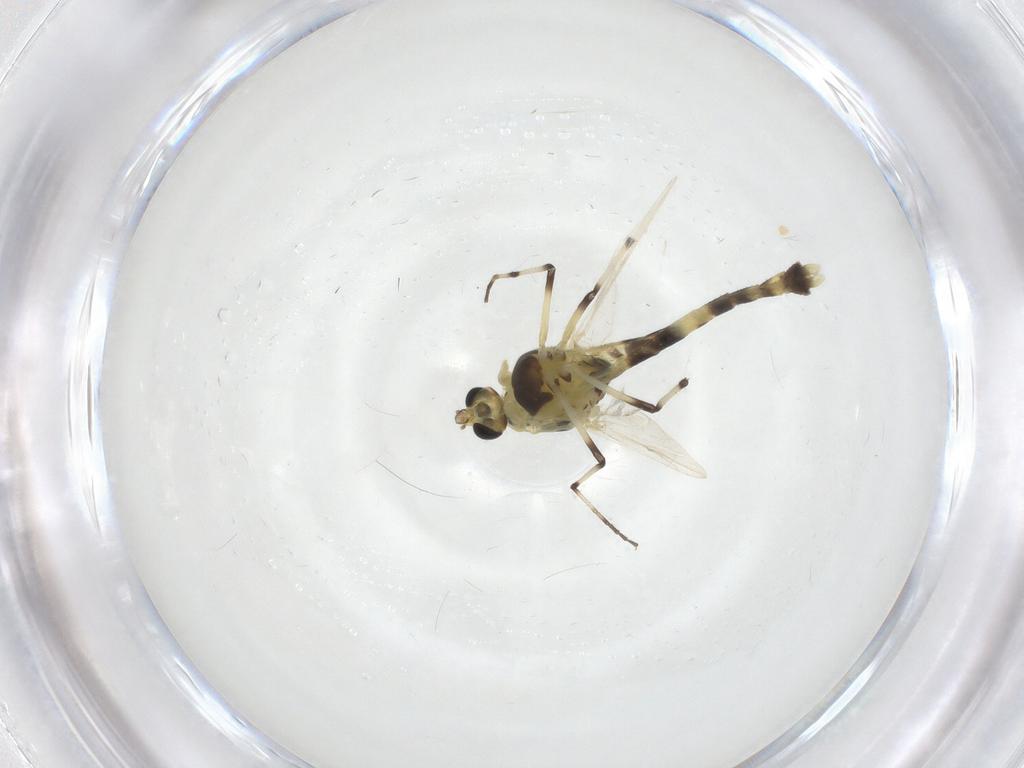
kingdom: Animalia
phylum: Arthropoda
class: Insecta
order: Diptera
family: Chironomidae
